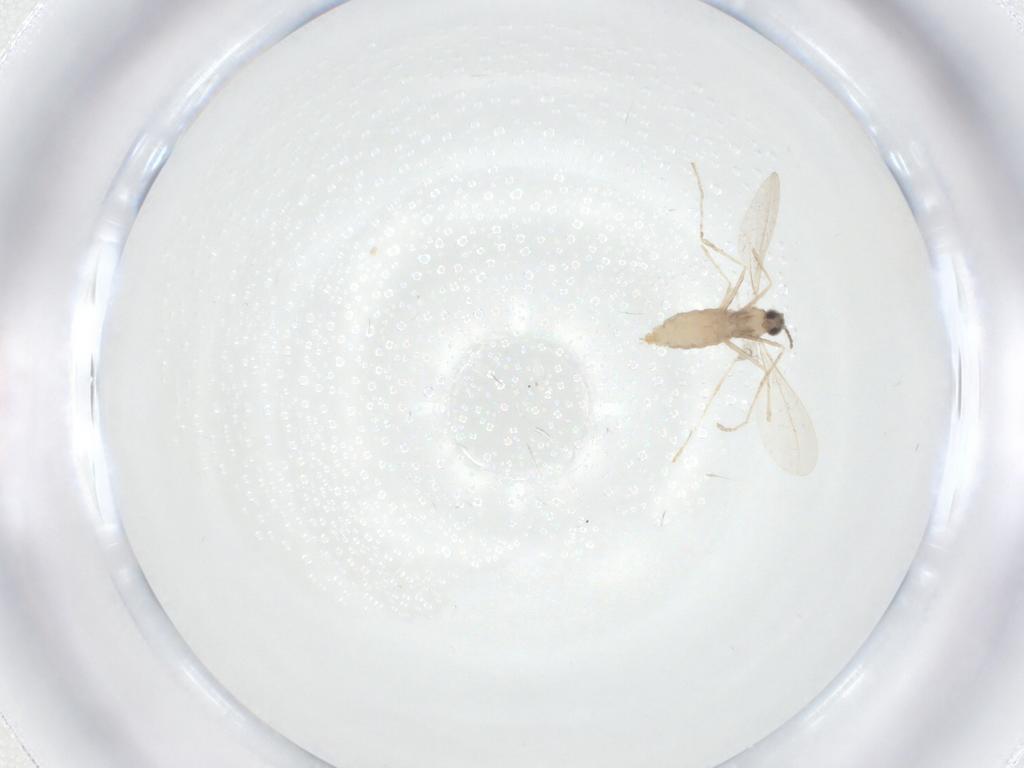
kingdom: Animalia
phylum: Arthropoda
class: Insecta
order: Diptera
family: Cecidomyiidae
